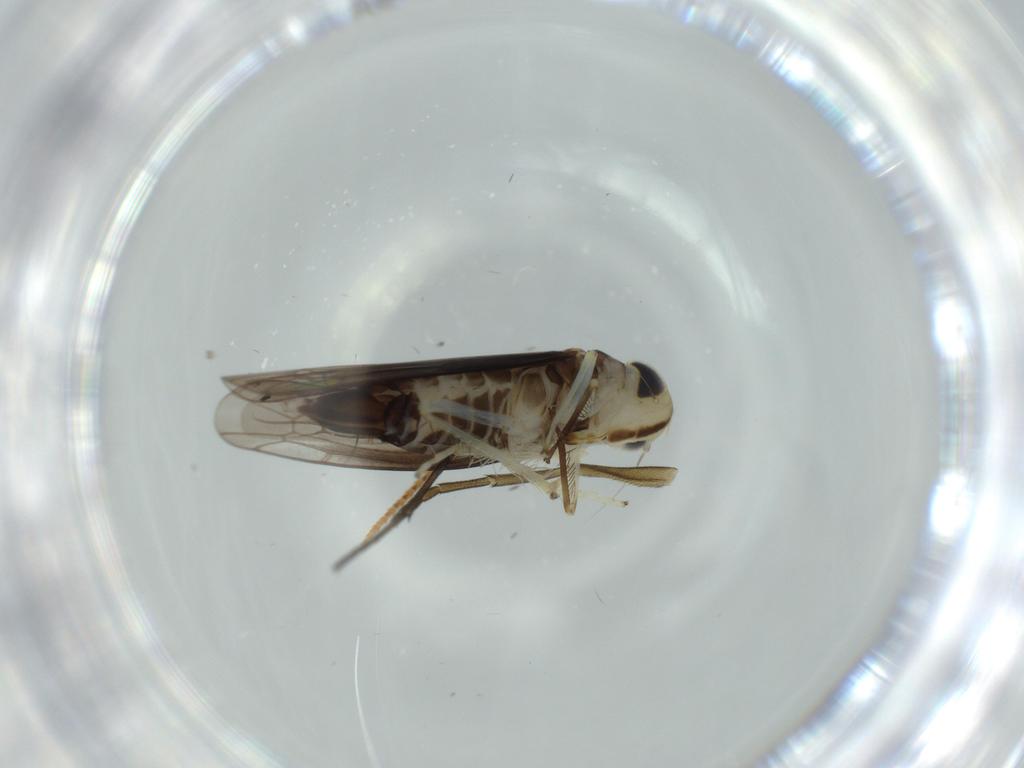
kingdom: Animalia
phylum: Arthropoda
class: Insecta
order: Hemiptera
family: Cicadellidae
